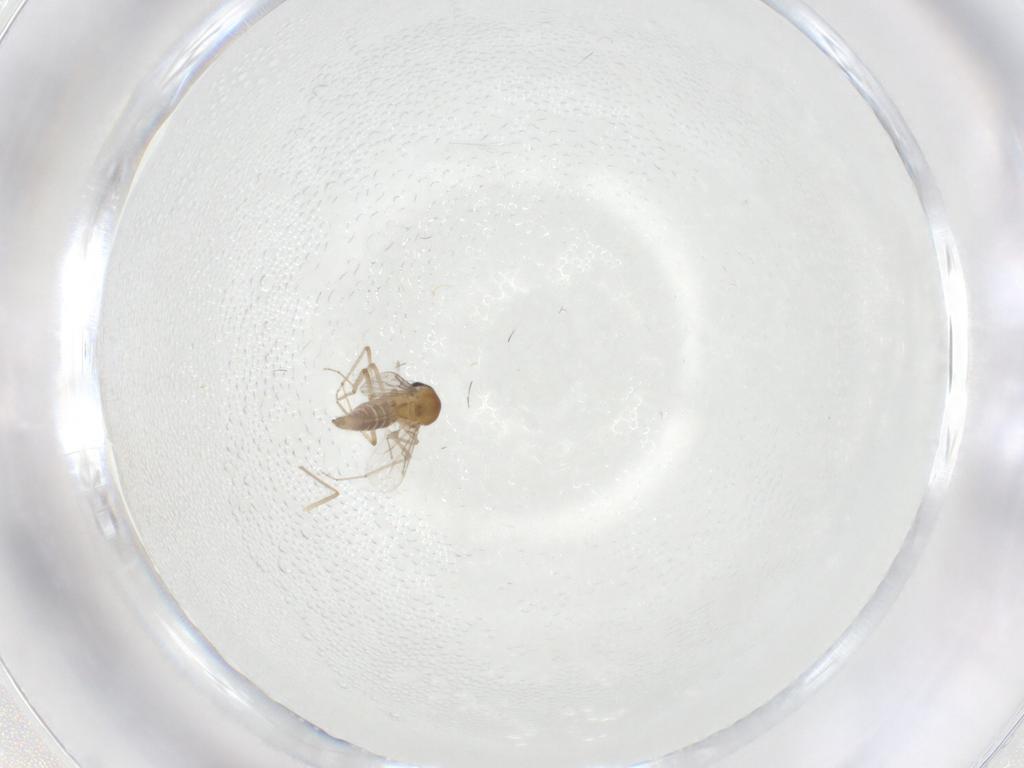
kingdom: Animalia
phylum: Arthropoda
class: Insecta
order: Diptera
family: Ceratopogonidae
